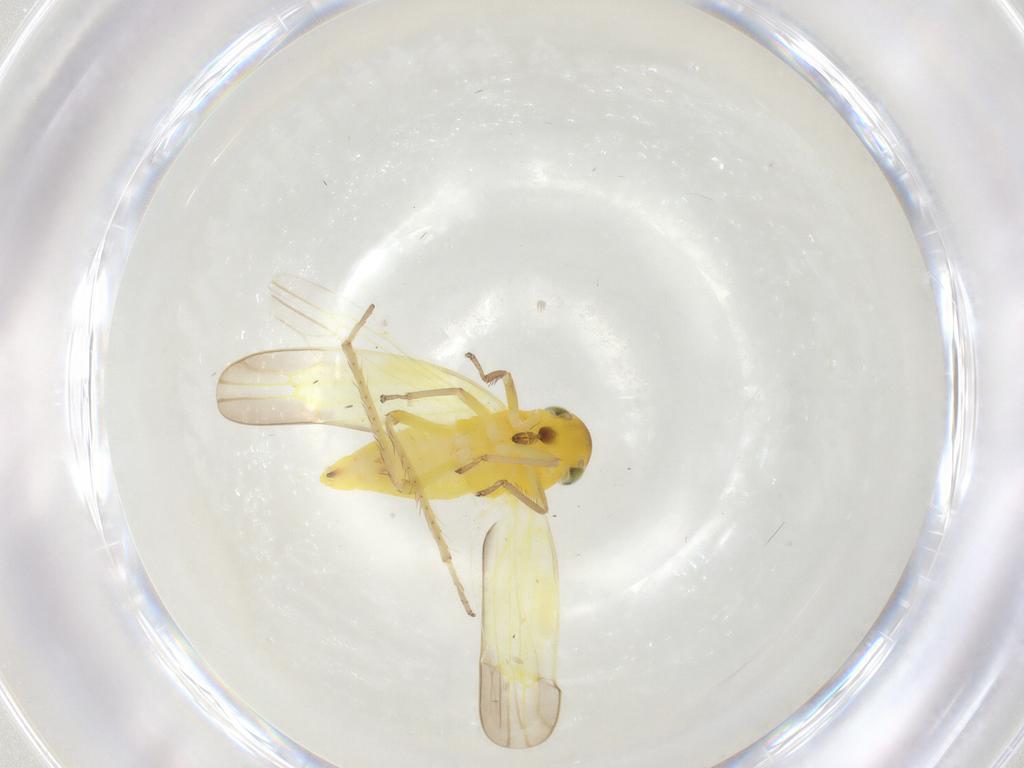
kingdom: Animalia
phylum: Arthropoda
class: Insecta
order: Hemiptera
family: Cicadellidae
